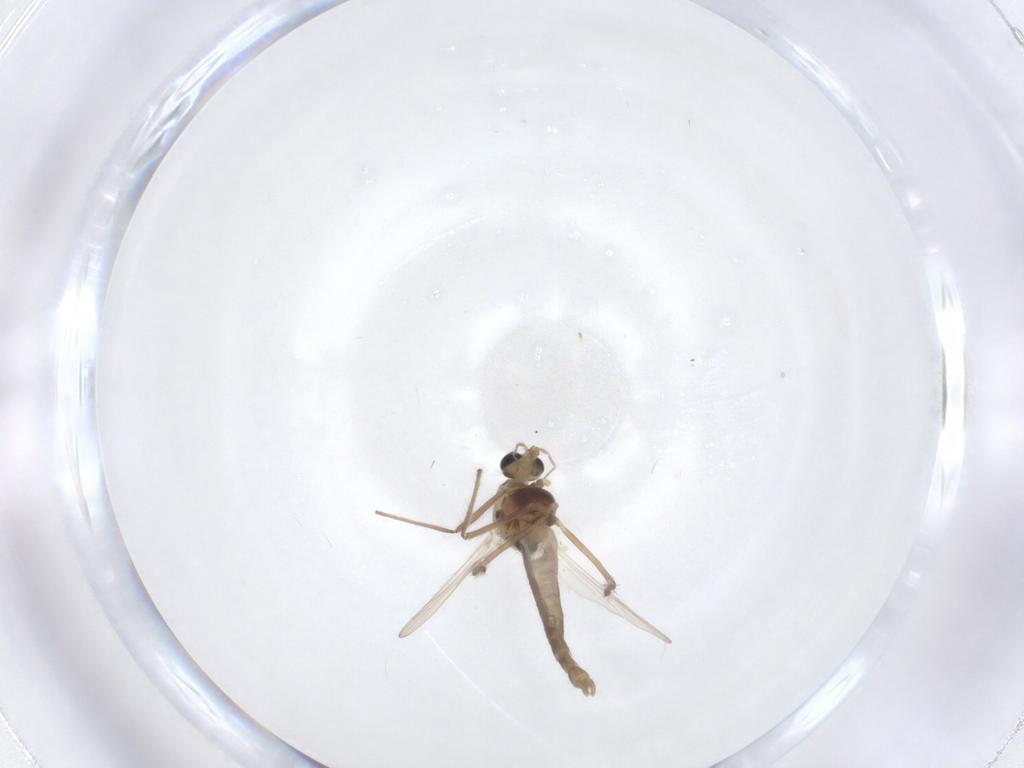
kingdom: Animalia
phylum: Arthropoda
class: Insecta
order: Diptera
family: Chironomidae
